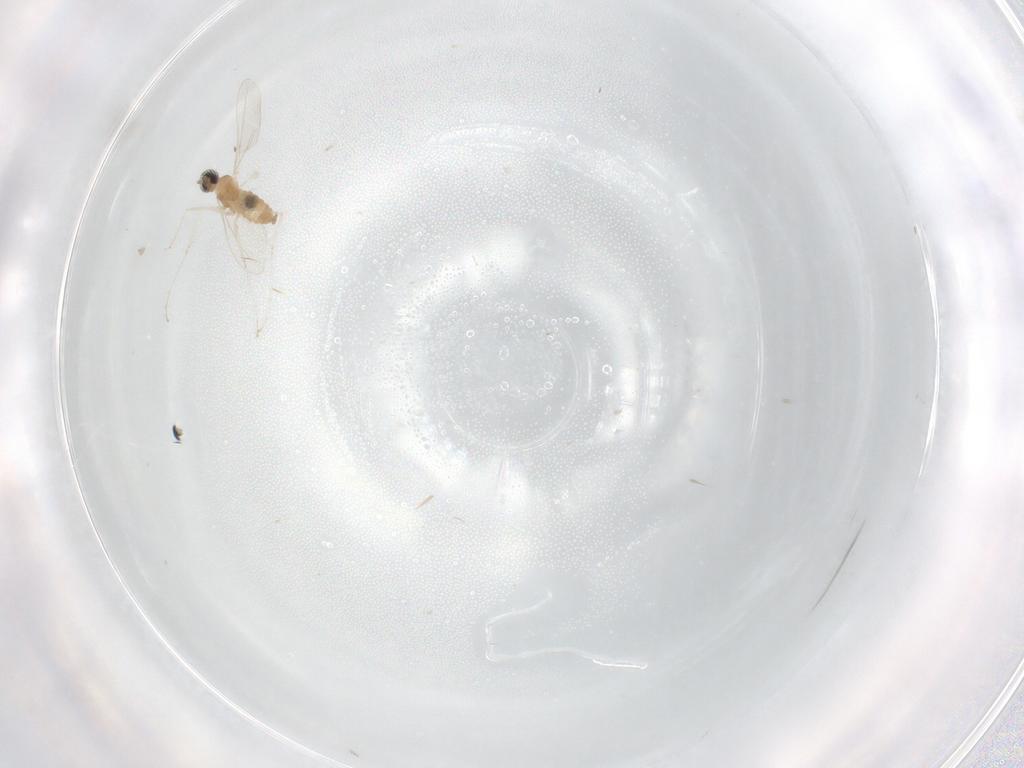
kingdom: Animalia
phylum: Arthropoda
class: Insecta
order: Diptera
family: Cecidomyiidae
